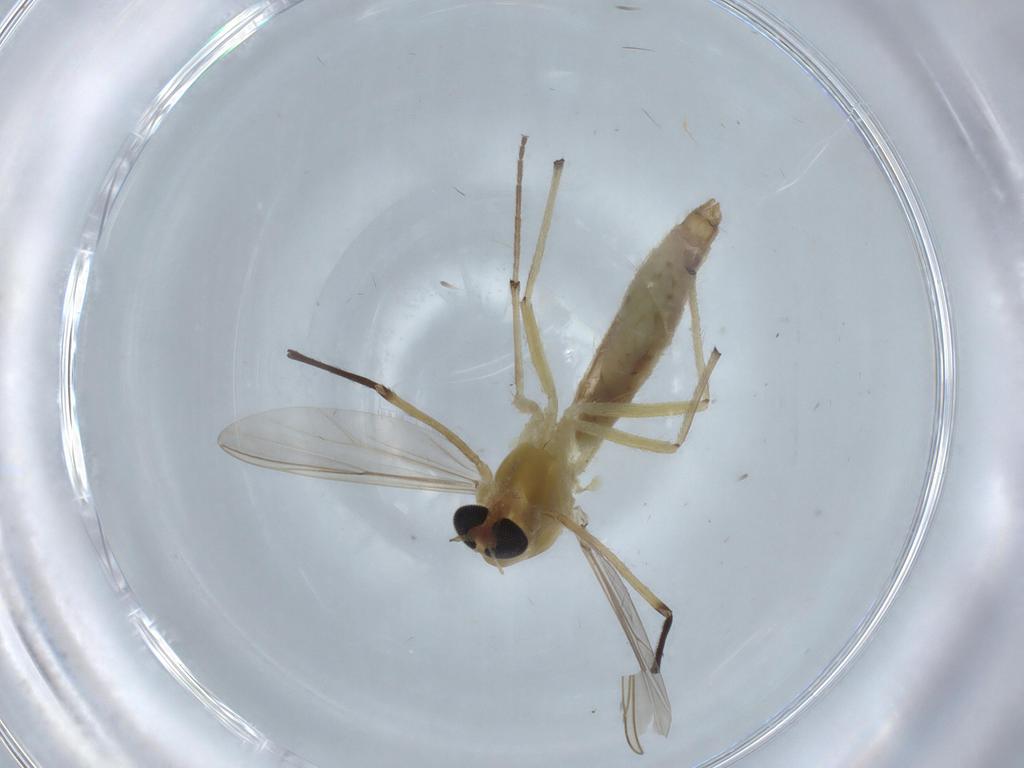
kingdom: Animalia
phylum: Arthropoda
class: Insecta
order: Diptera
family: Chironomidae
